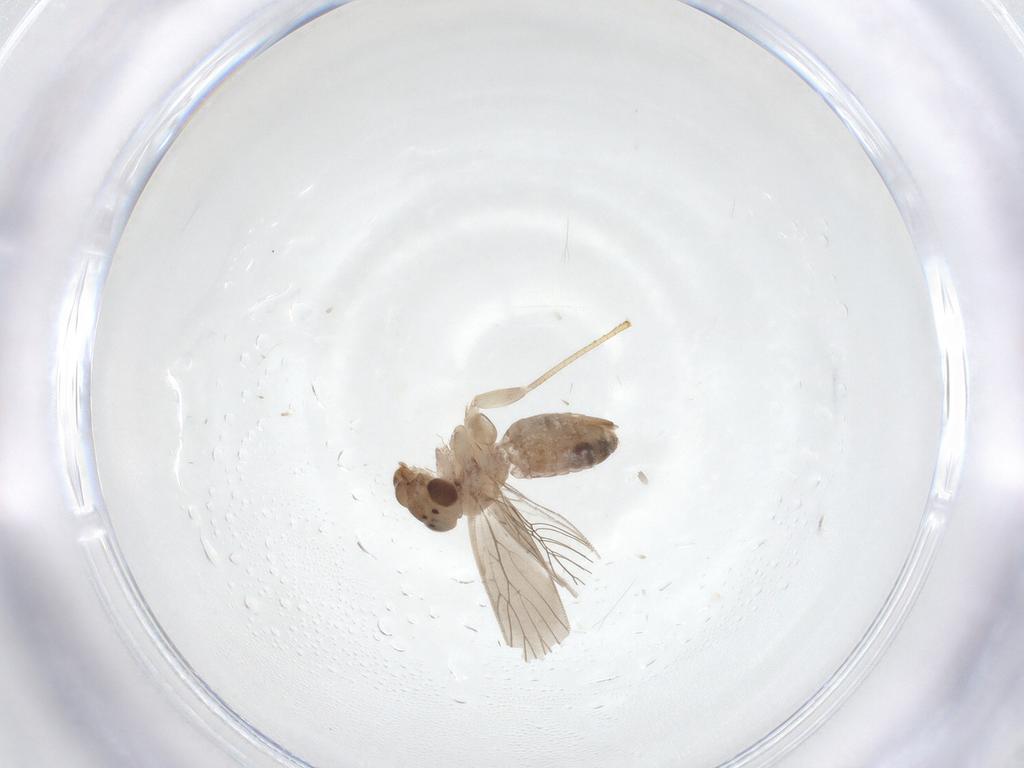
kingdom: Animalia
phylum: Arthropoda
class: Insecta
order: Psocodea
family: Lepidopsocidae
